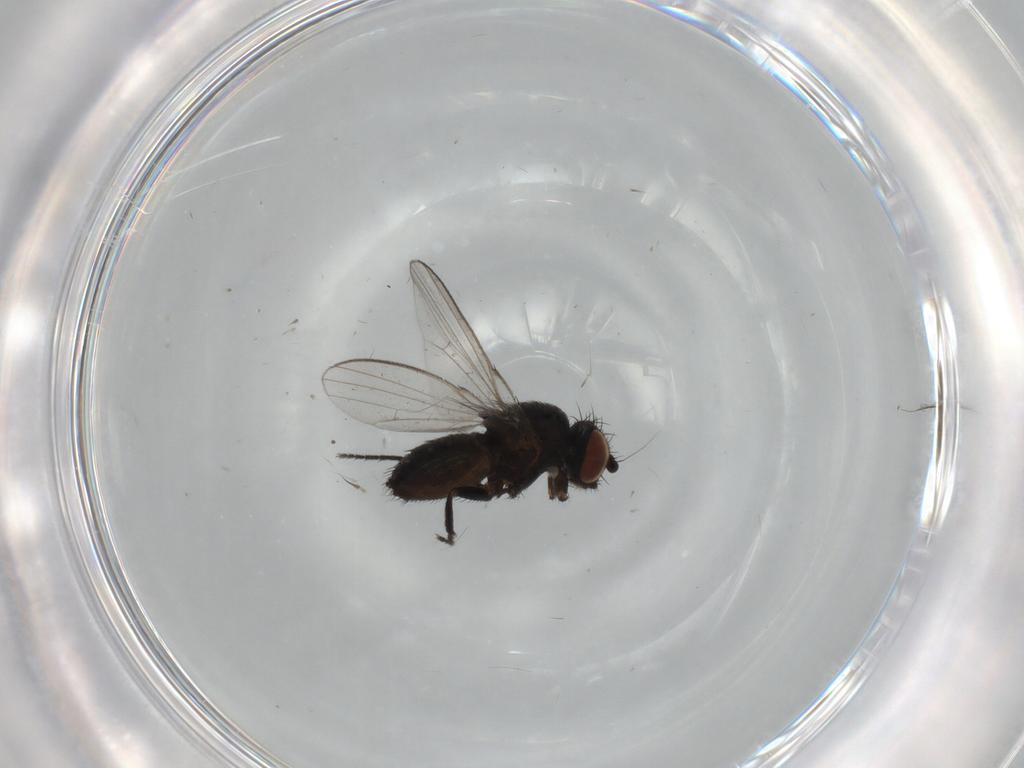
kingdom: Animalia
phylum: Arthropoda
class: Insecta
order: Diptera
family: Milichiidae
